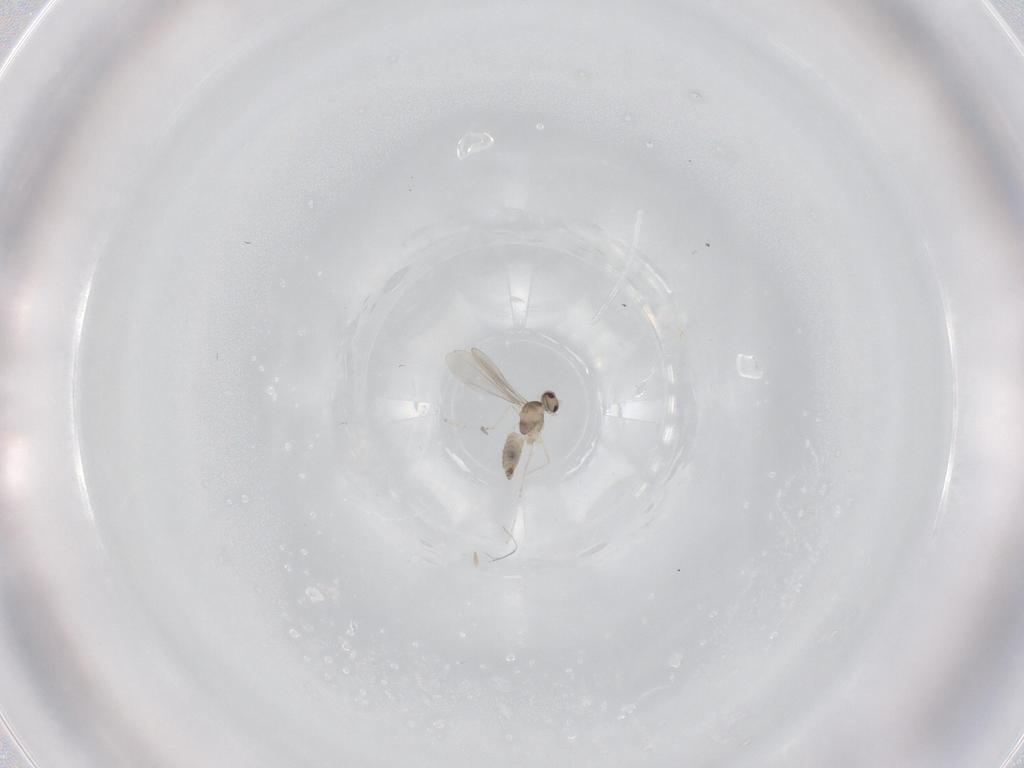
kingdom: Animalia
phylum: Arthropoda
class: Insecta
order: Diptera
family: Cecidomyiidae
